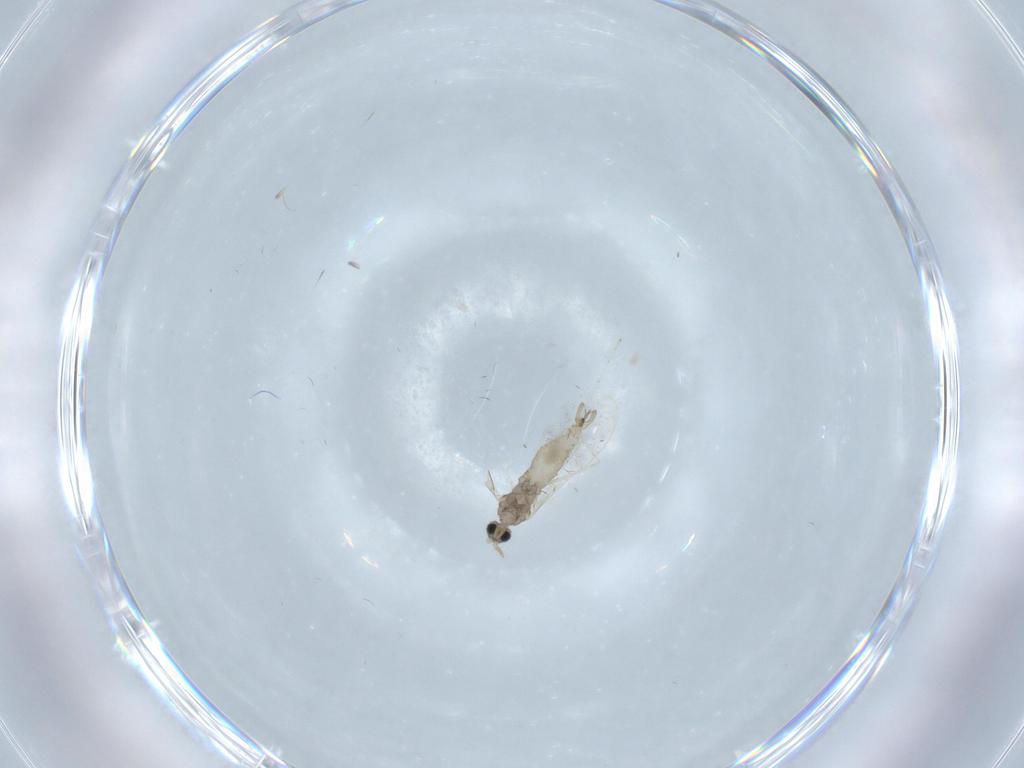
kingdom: Animalia
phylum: Arthropoda
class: Insecta
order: Diptera
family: Cecidomyiidae
